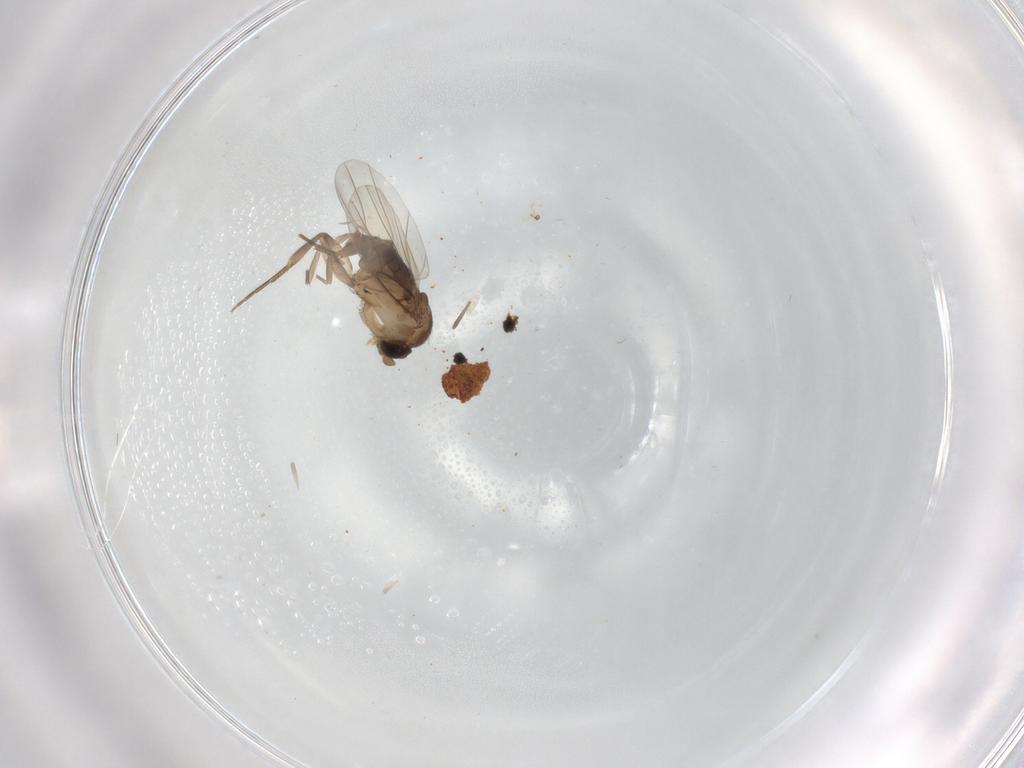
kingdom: Animalia
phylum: Arthropoda
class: Insecta
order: Diptera
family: Phoridae
